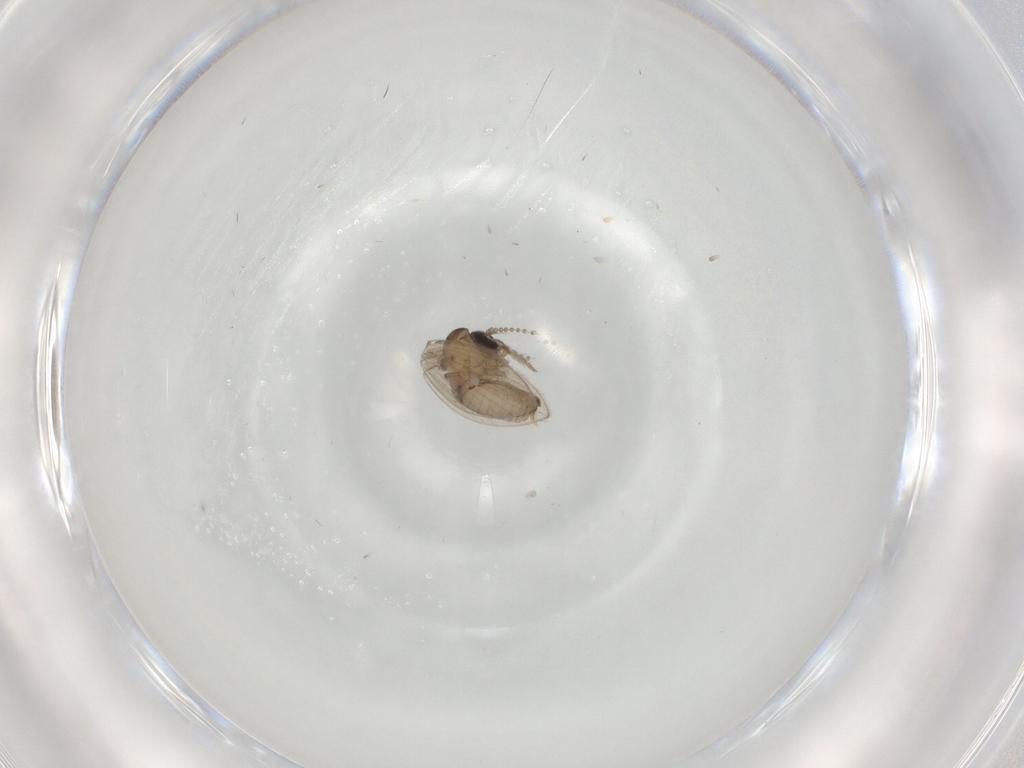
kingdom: Animalia
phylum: Arthropoda
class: Insecta
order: Diptera
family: Psychodidae
